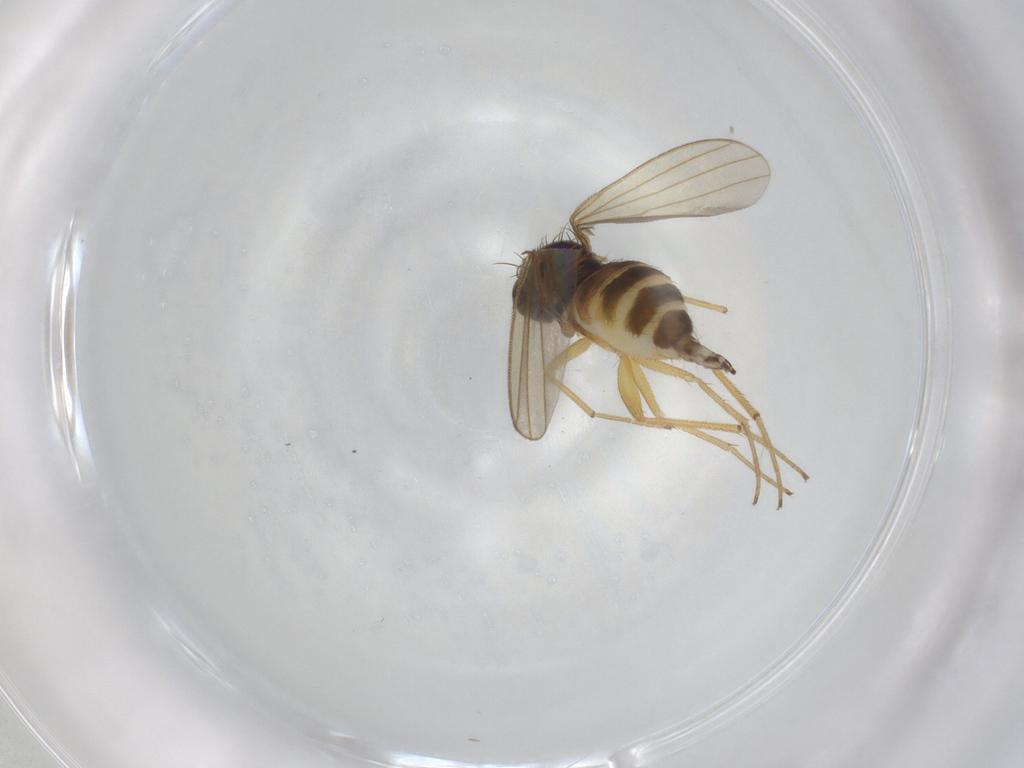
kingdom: Animalia
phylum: Arthropoda
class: Insecta
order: Diptera
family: Dolichopodidae
